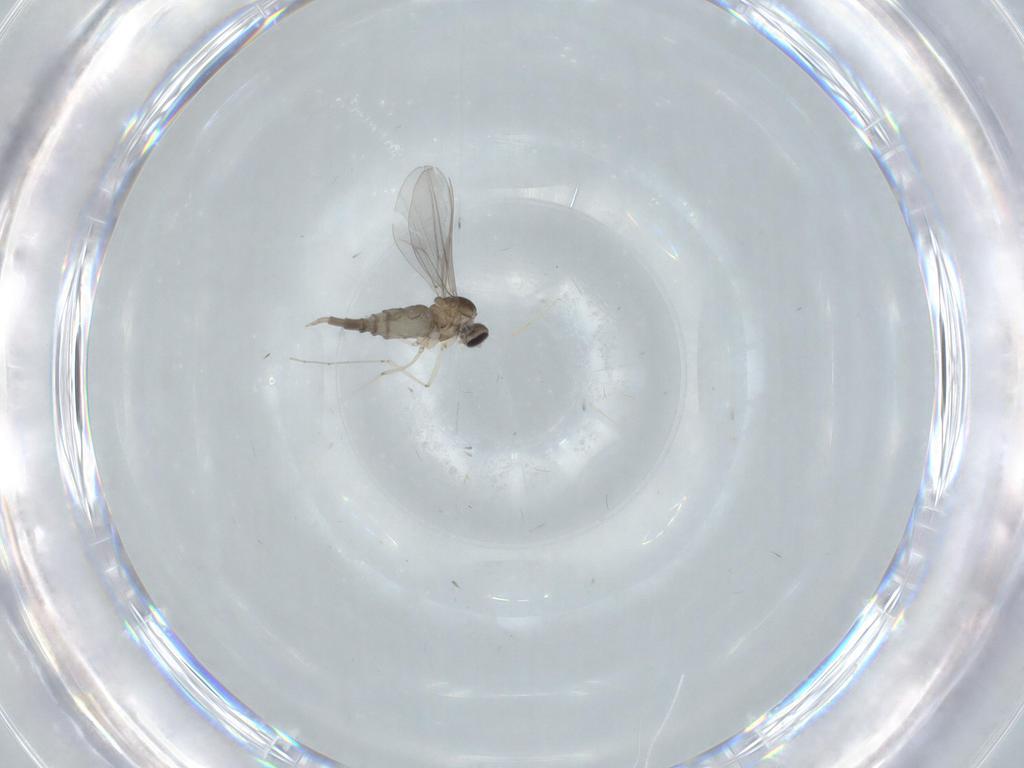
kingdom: Animalia
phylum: Arthropoda
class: Insecta
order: Diptera
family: Cecidomyiidae
